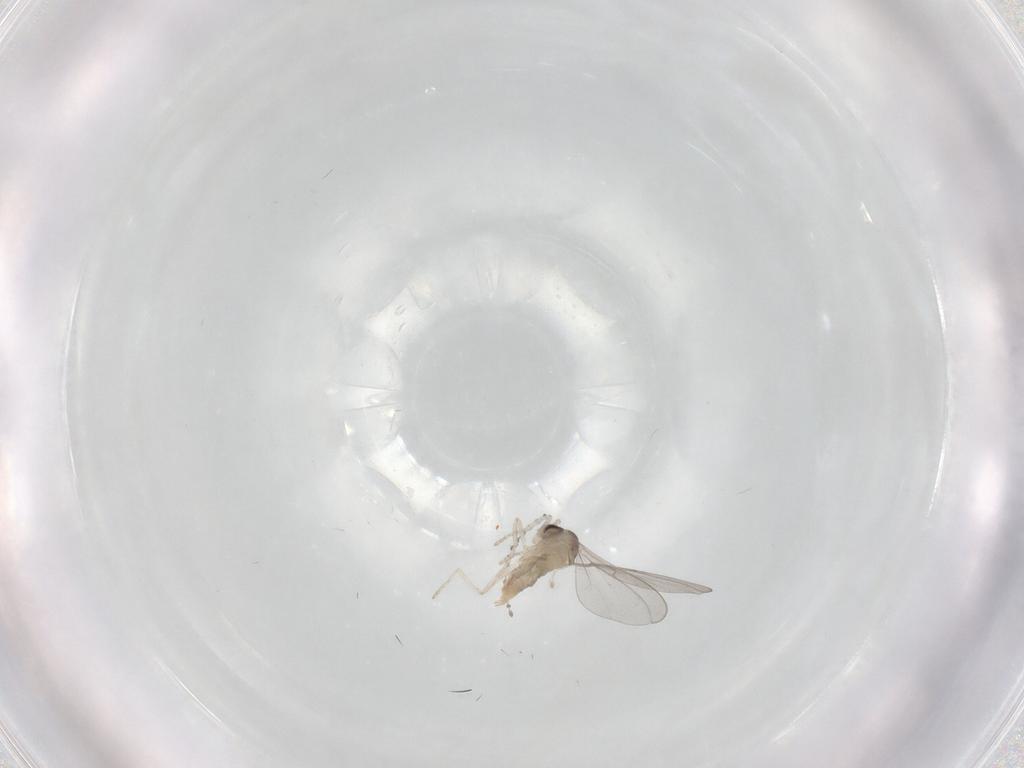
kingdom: Animalia
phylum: Arthropoda
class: Insecta
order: Diptera
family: Cecidomyiidae
